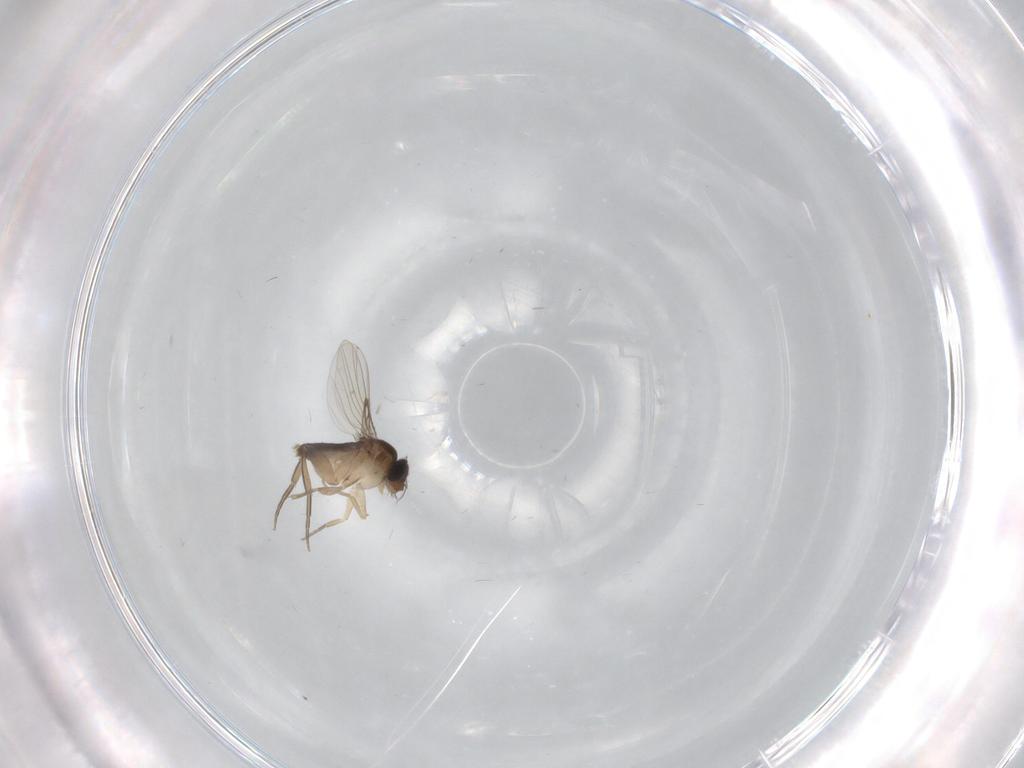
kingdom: Animalia
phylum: Arthropoda
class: Insecta
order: Diptera
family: Phoridae
